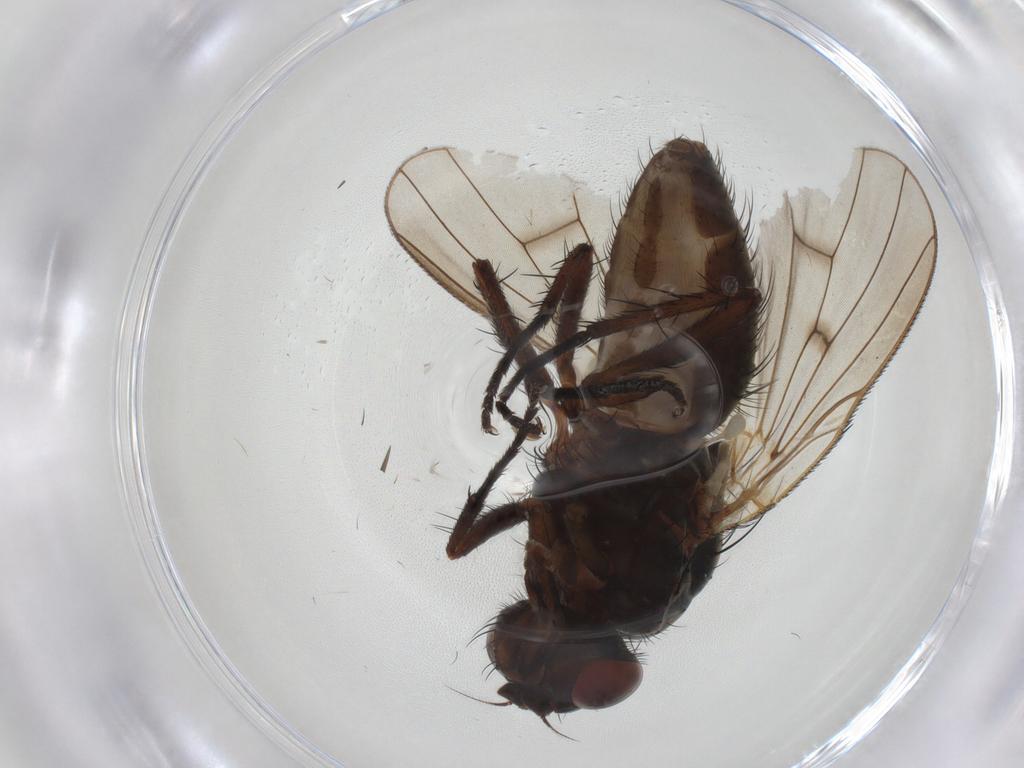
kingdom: Animalia
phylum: Arthropoda
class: Insecta
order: Diptera
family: Anthomyiidae
